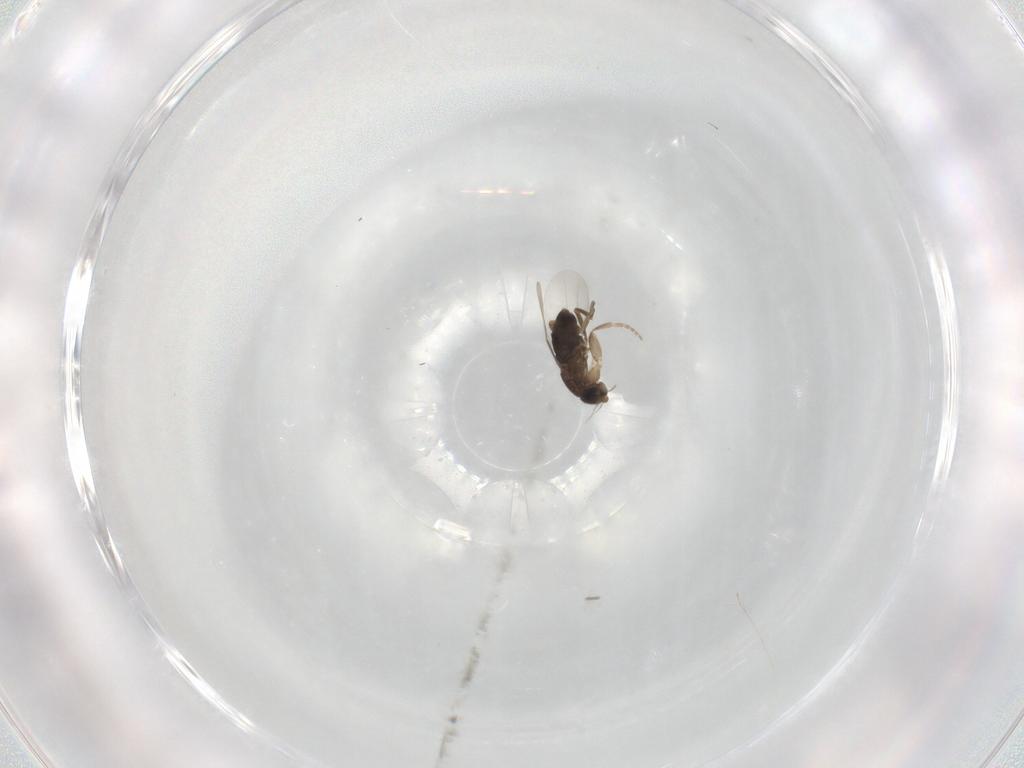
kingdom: Animalia
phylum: Arthropoda
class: Insecta
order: Diptera
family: Phoridae
